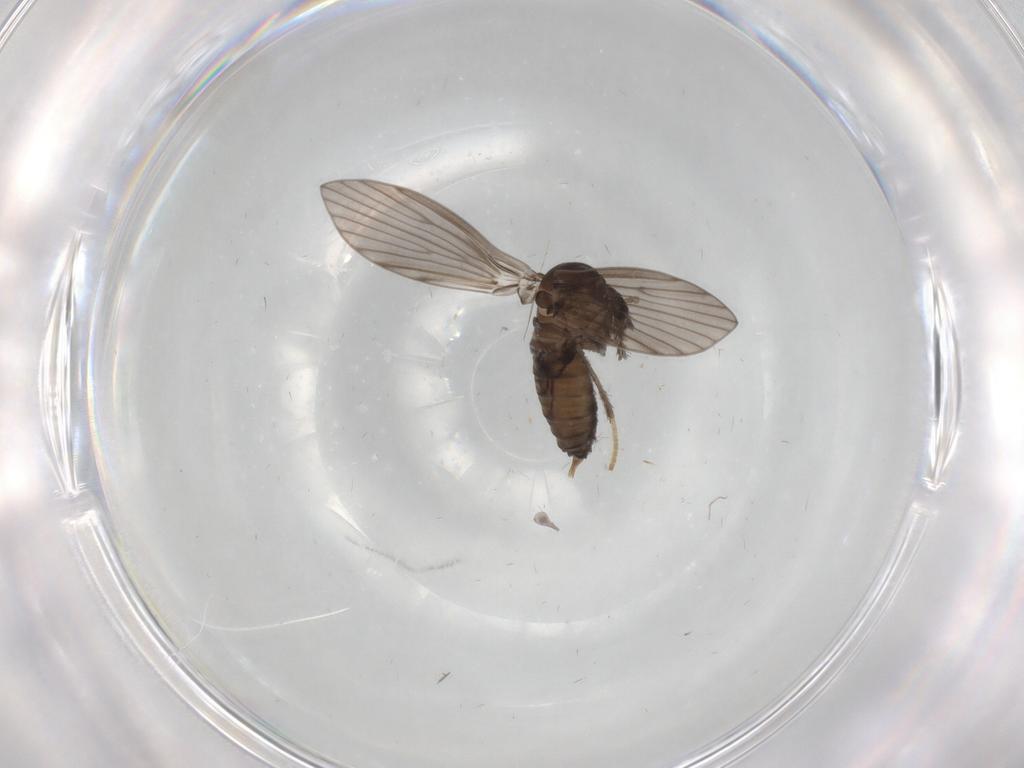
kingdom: Animalia
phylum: Arthropoda
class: Insecta
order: Diptera
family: Psychodidae
